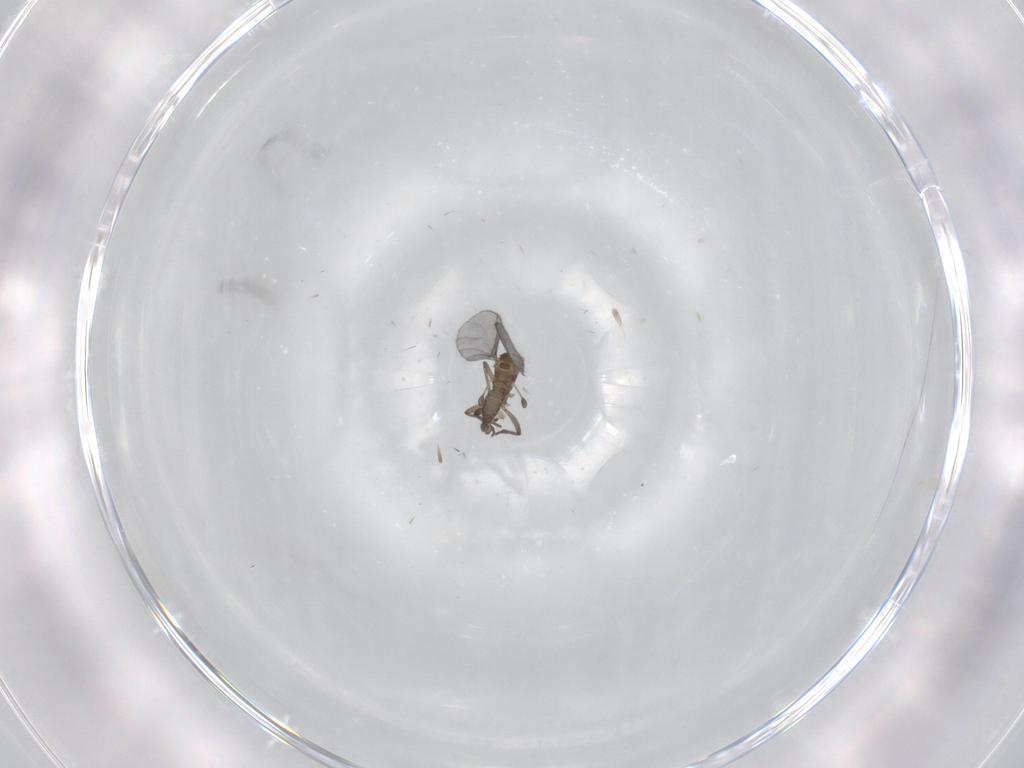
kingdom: Animalia
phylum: Arthropoda
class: Insecta
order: Diptera
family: Sciaridae
